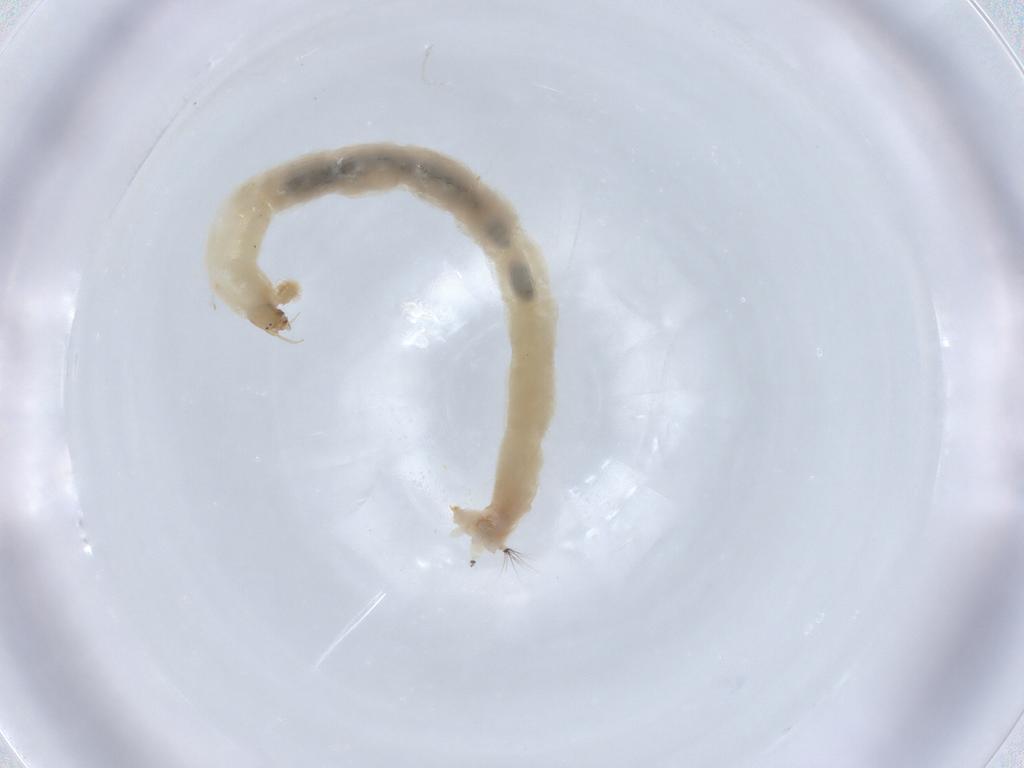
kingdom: Animalia
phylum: Arthropoda
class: Insecta
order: Diptera
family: Chironomidae
